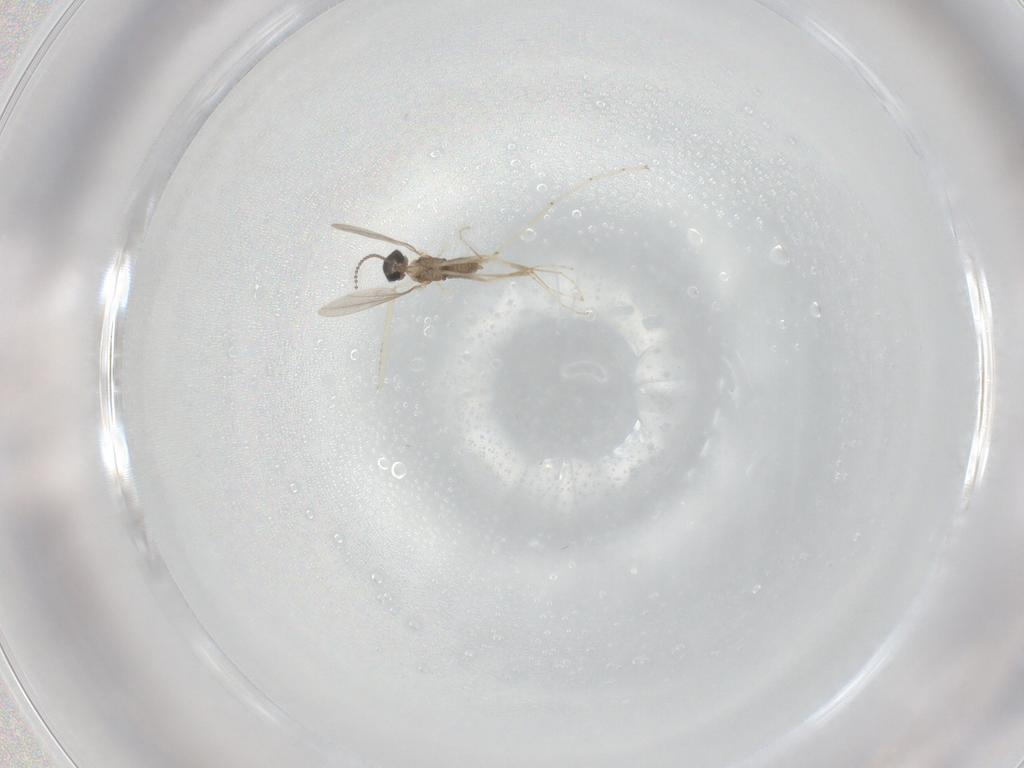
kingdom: Animalia
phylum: Arthropoda
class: Insecta
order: Diptera
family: Cecidomyiidae
